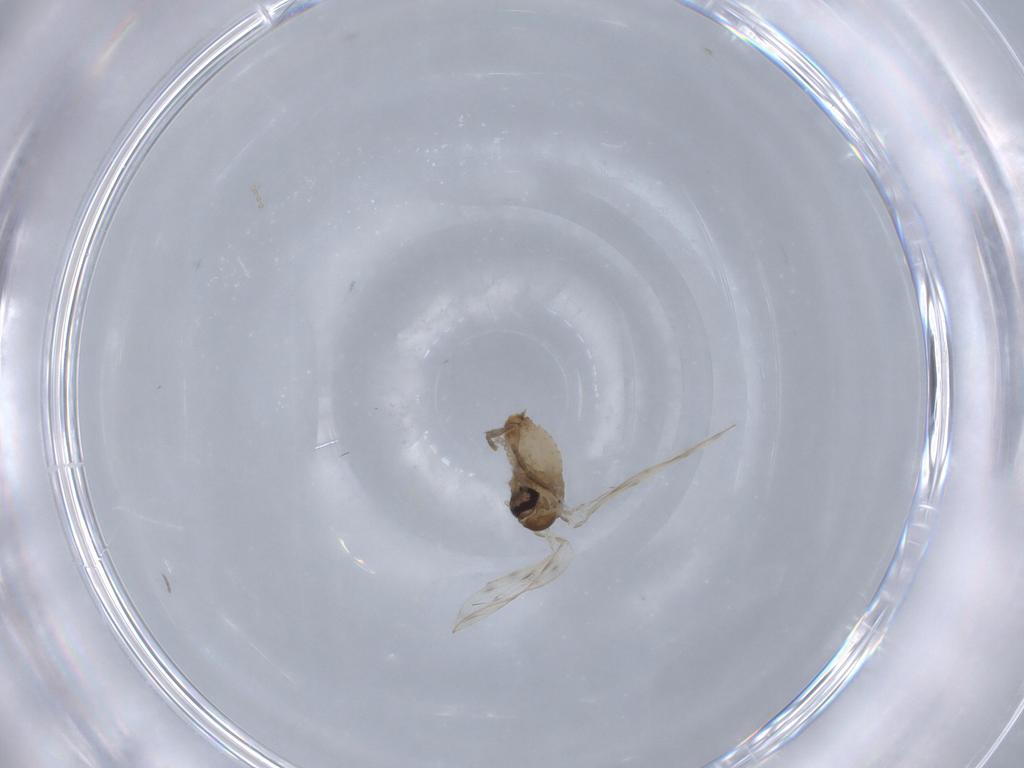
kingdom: Animalia
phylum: Arthropoda
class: Insecta
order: Diptera
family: Psychodidae
